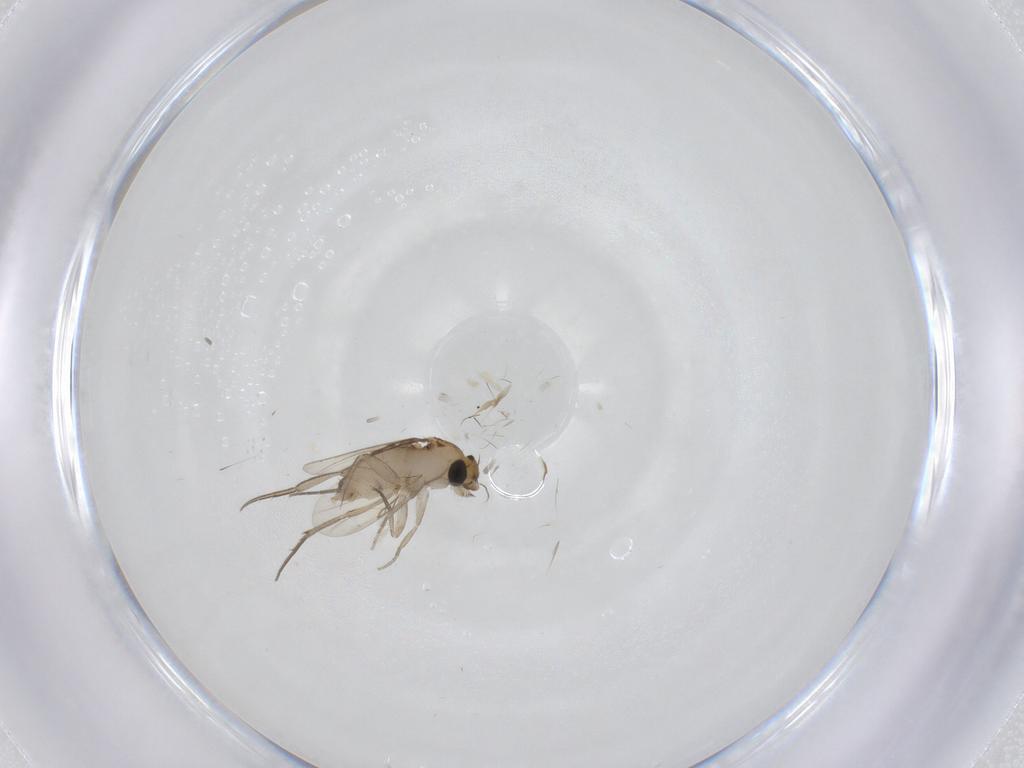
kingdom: Animalia
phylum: Arthropoda
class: Insecta
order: Diptera
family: Phoridae
